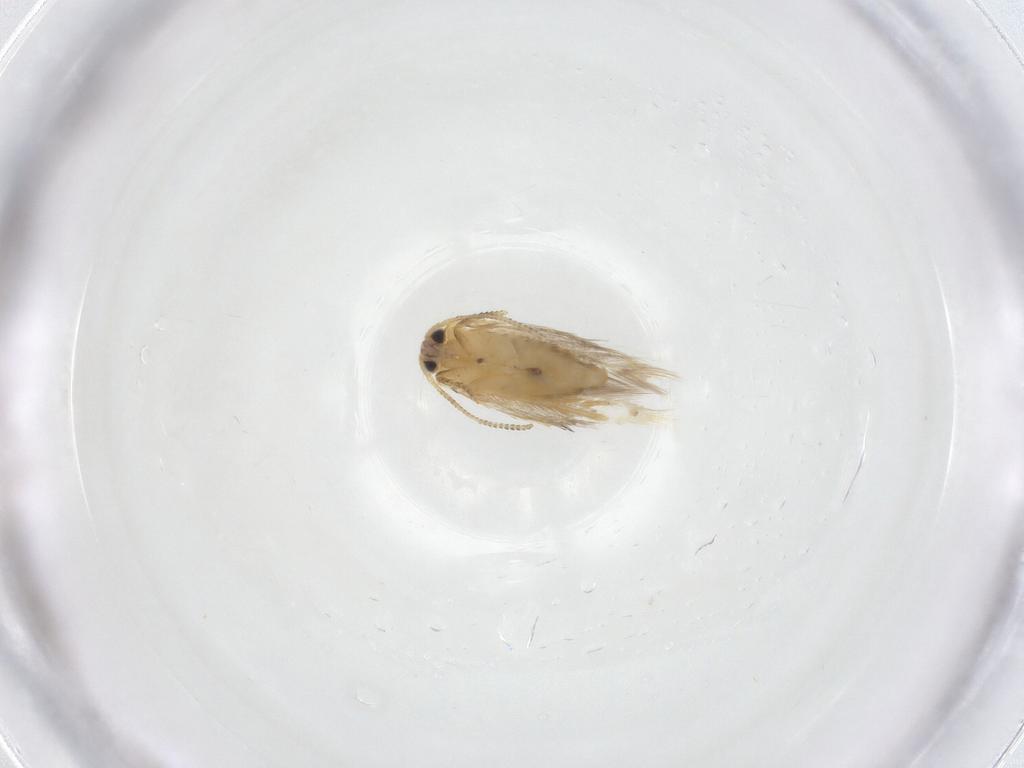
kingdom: Animalia
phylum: Arthropoda
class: Insecta
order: Lepidoptera
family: Nepticulidae
